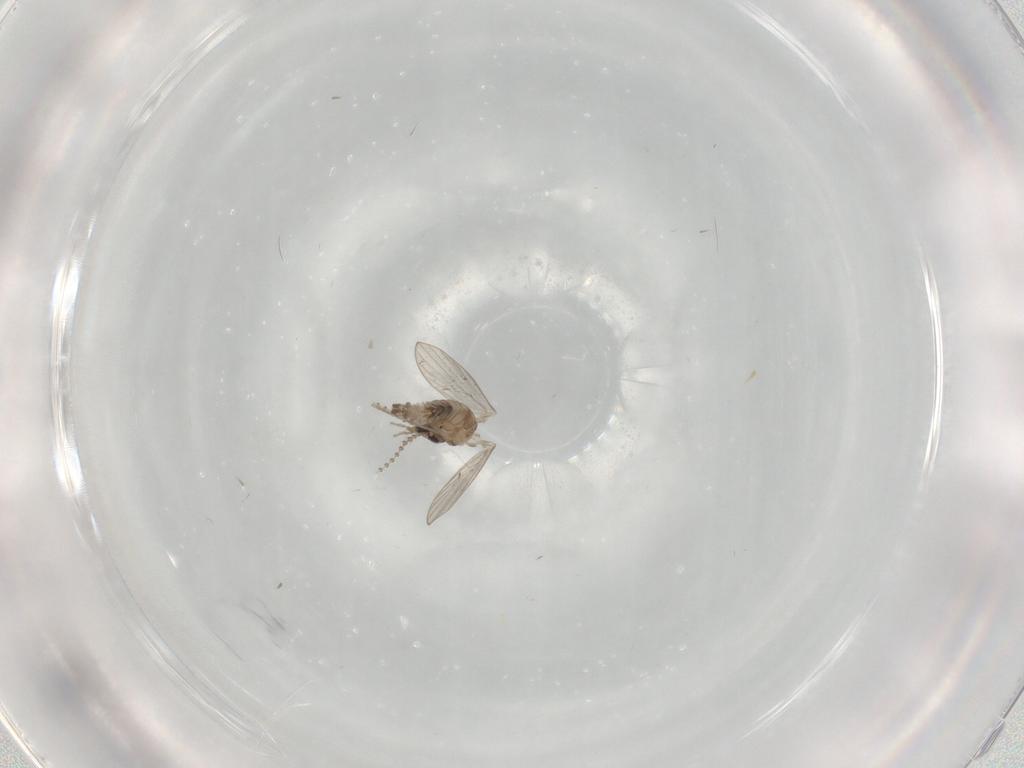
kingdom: Animalia
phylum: Arthropoda
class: Insecta
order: Diptera
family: Psychodidae
